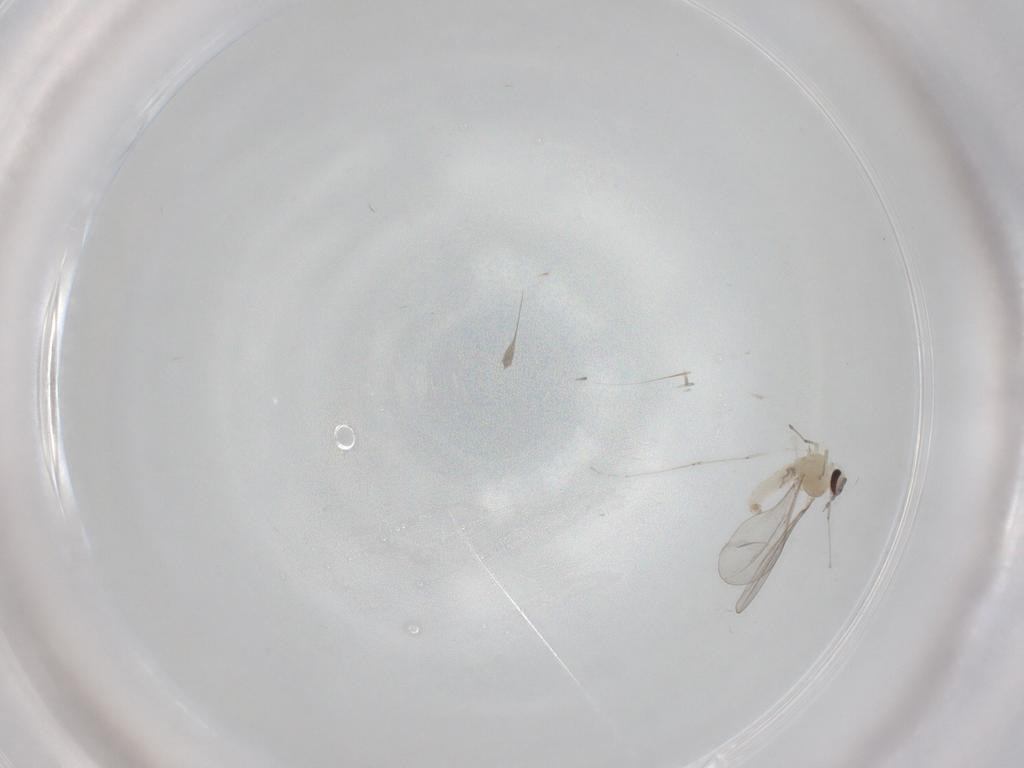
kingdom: Animalia
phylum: Arthropoda
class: Insecta
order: Diptera
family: Cecidomyiidae
